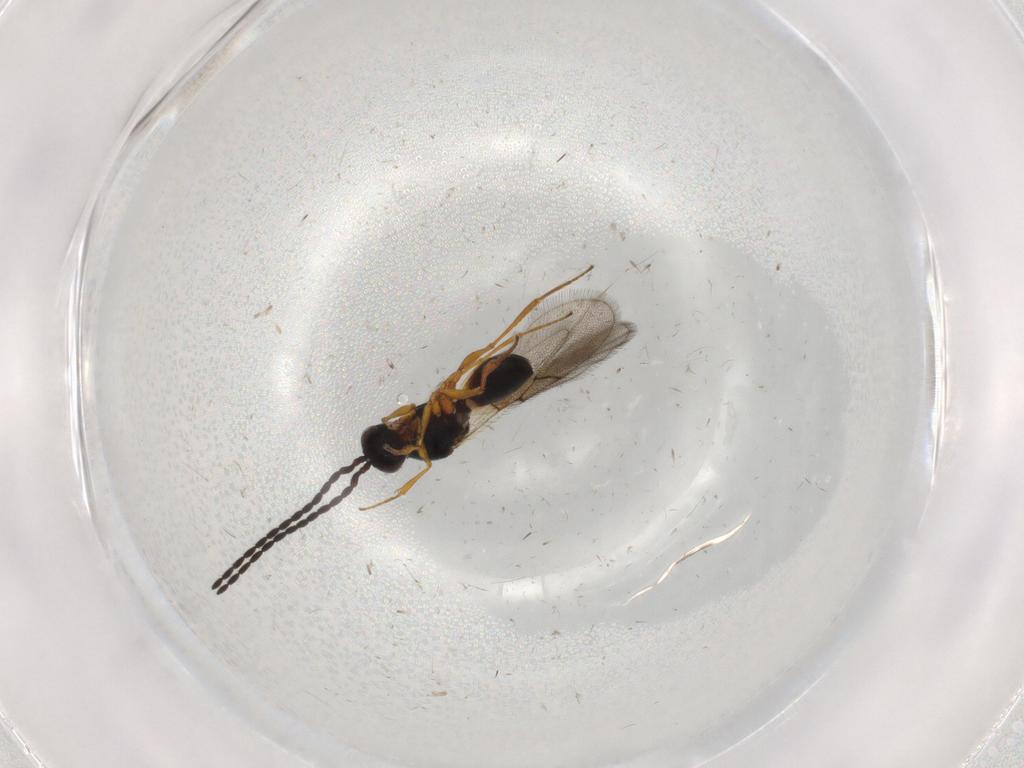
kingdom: Animalia
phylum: Arthropoda
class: Insecta
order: Hymenoptera
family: Figitidae
